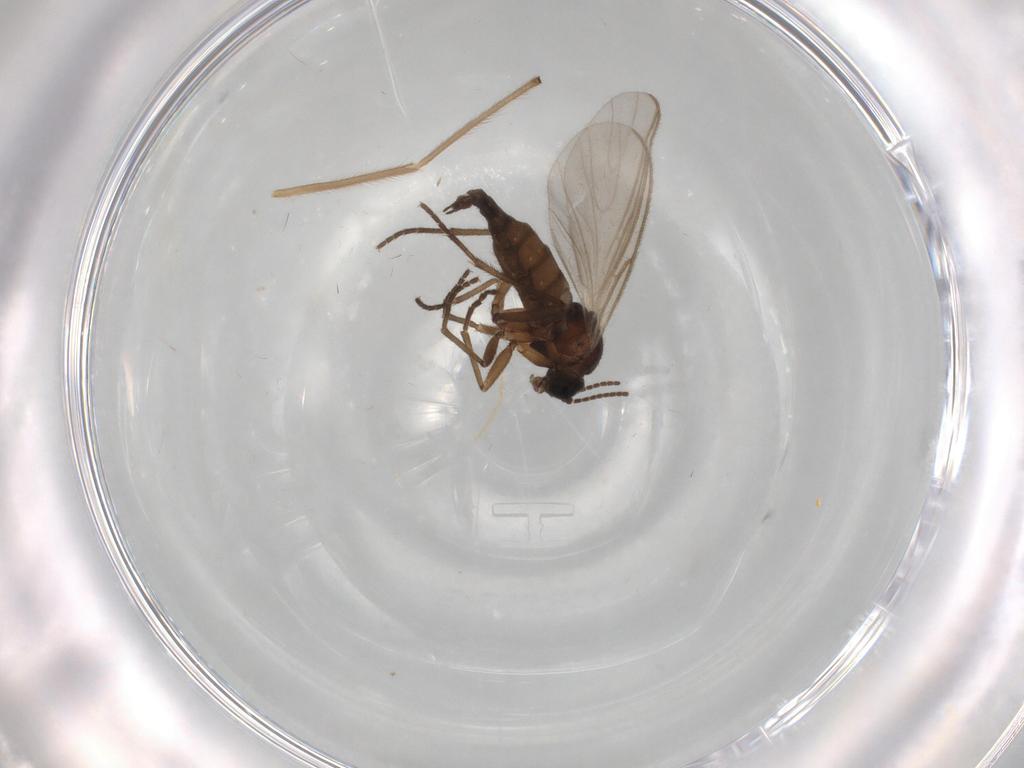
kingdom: Animalia
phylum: Arthropoda
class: Insecta
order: Diptera
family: Sciaridae
